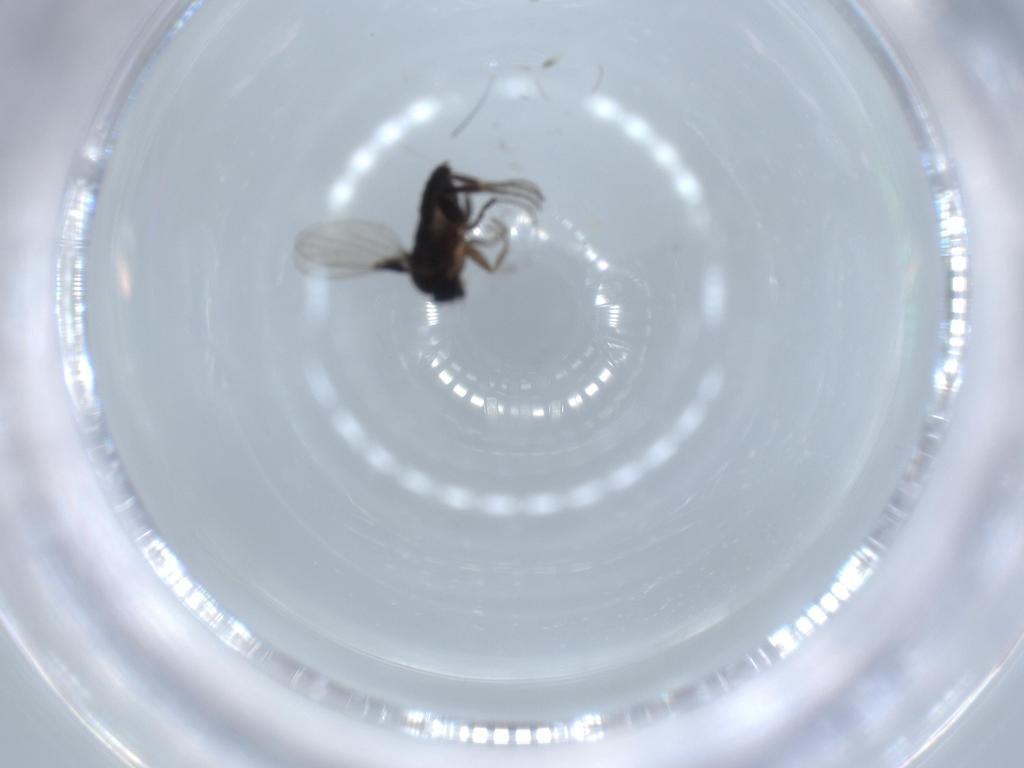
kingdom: Animalia
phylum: Arthropoda
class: Insecta
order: Diptera
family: Phoridae
